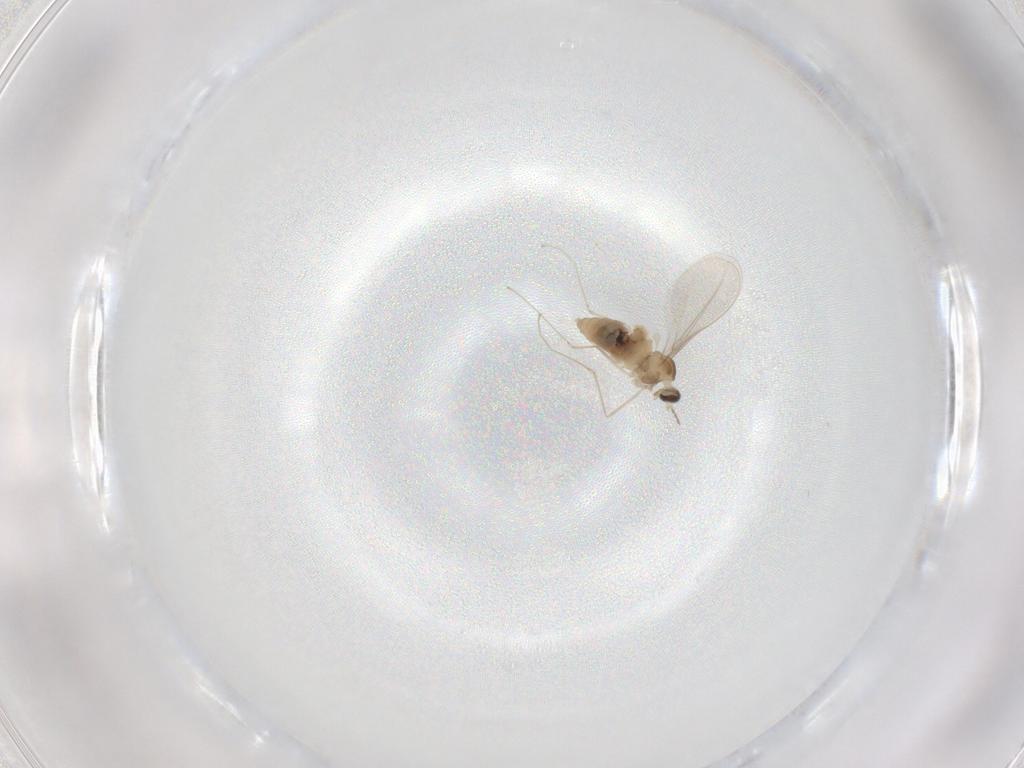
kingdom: Animalia
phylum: Arthropoda
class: Insecta
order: Diptera
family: Cecidomyiidae
